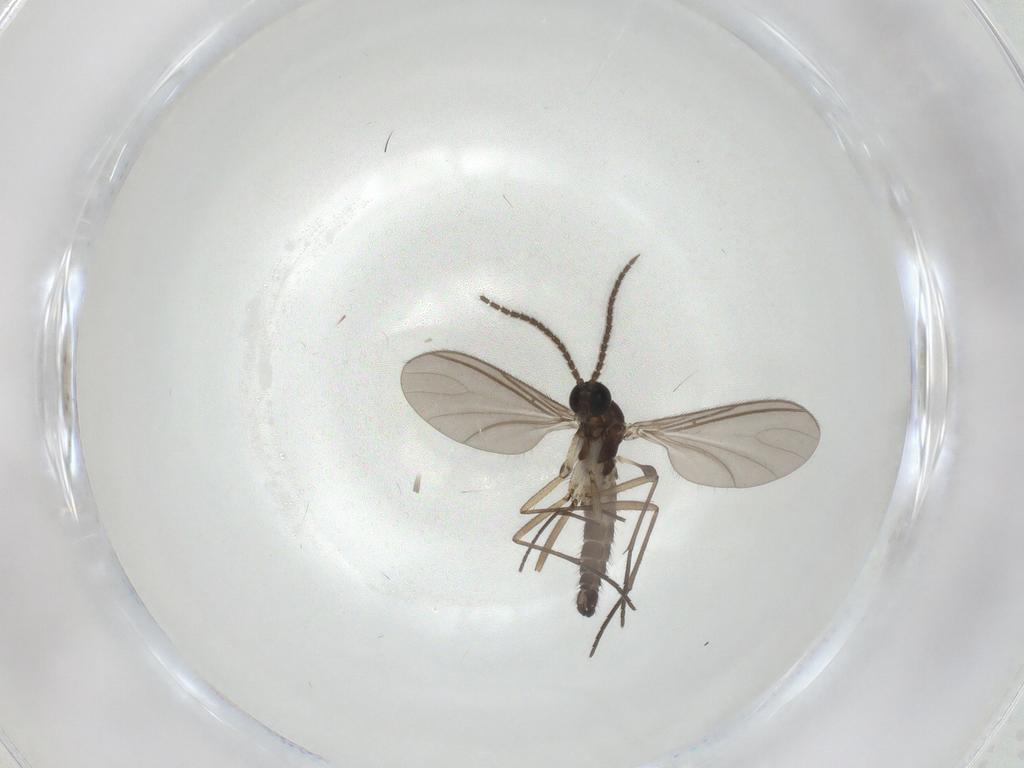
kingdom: Animalia
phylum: Arthropoda
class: Insecta
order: Diptera
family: Sciaridae
